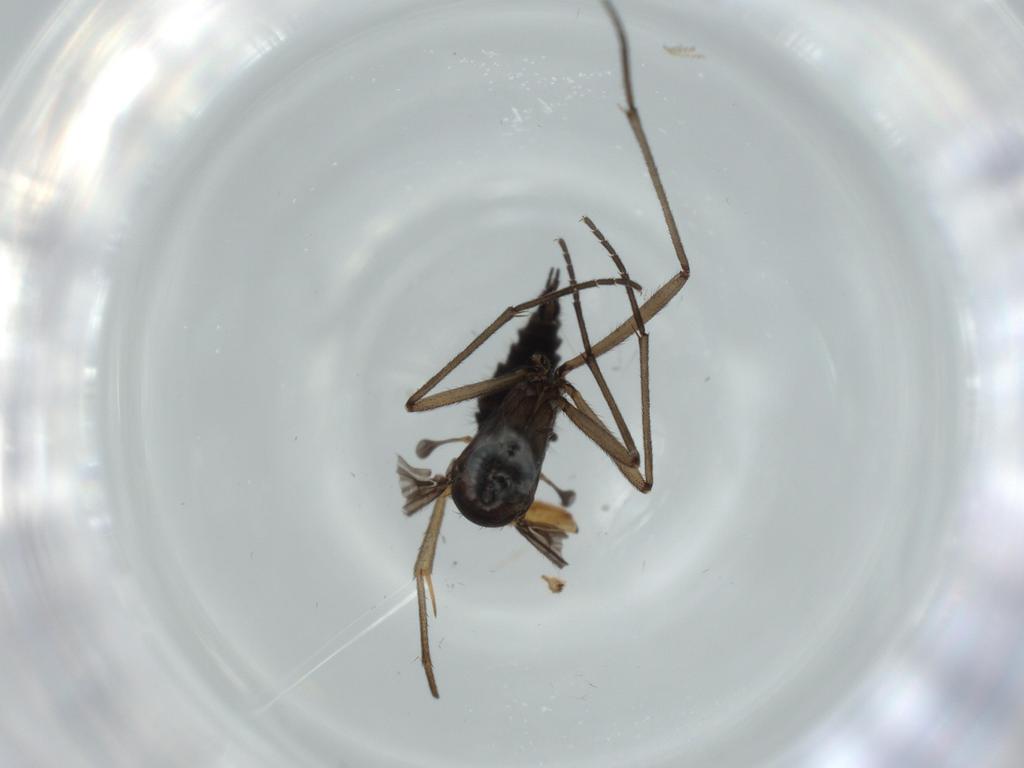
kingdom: Animalia
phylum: Arthropoda
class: Insecta
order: Diptera
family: Sciaridae
